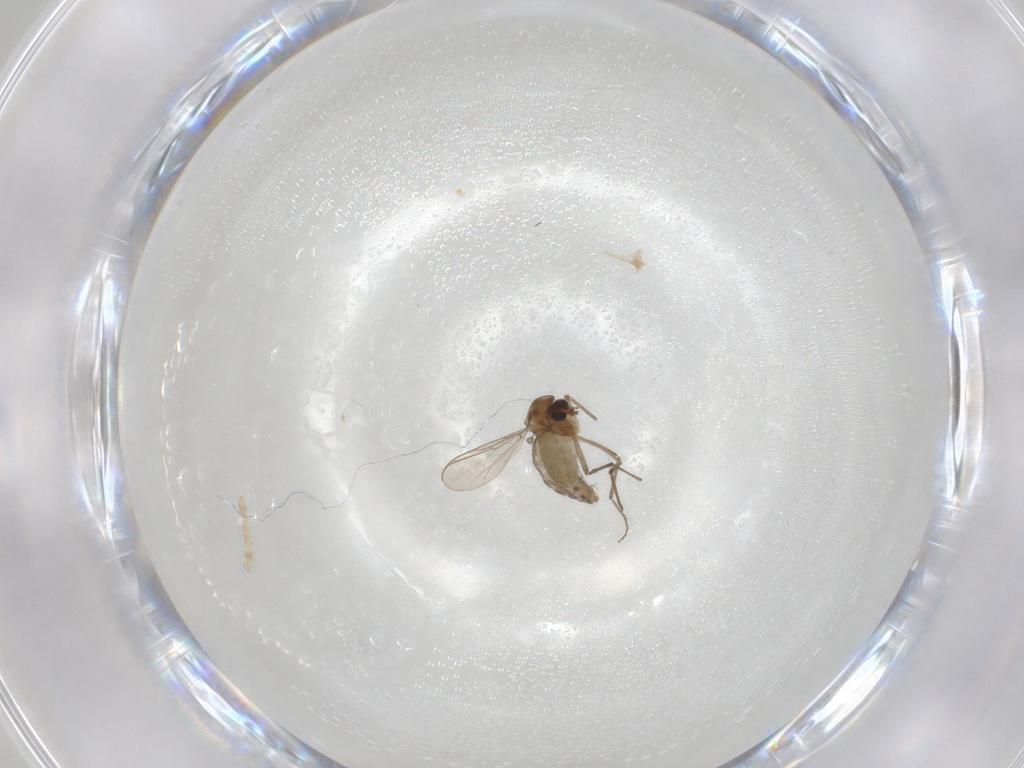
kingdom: Animalia
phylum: Arthropoda
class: Insecta
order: Diptera
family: Chironomidae
